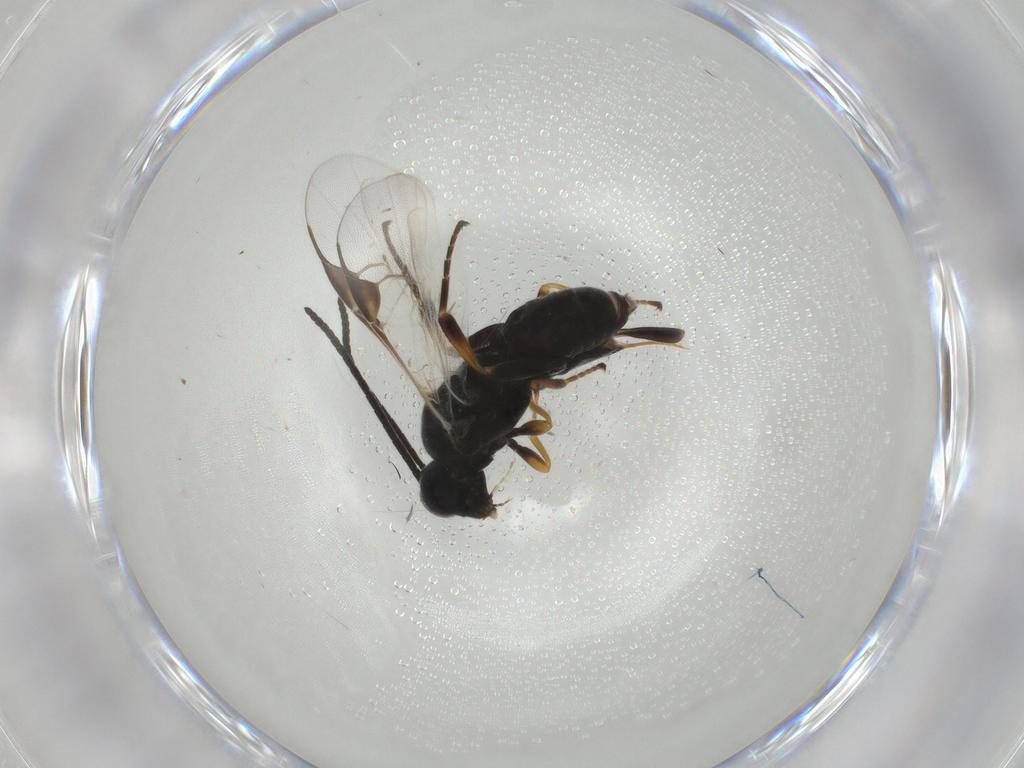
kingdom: Animalia
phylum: Arthropoda
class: Insecta
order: Hymenoptera
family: Braconidae
